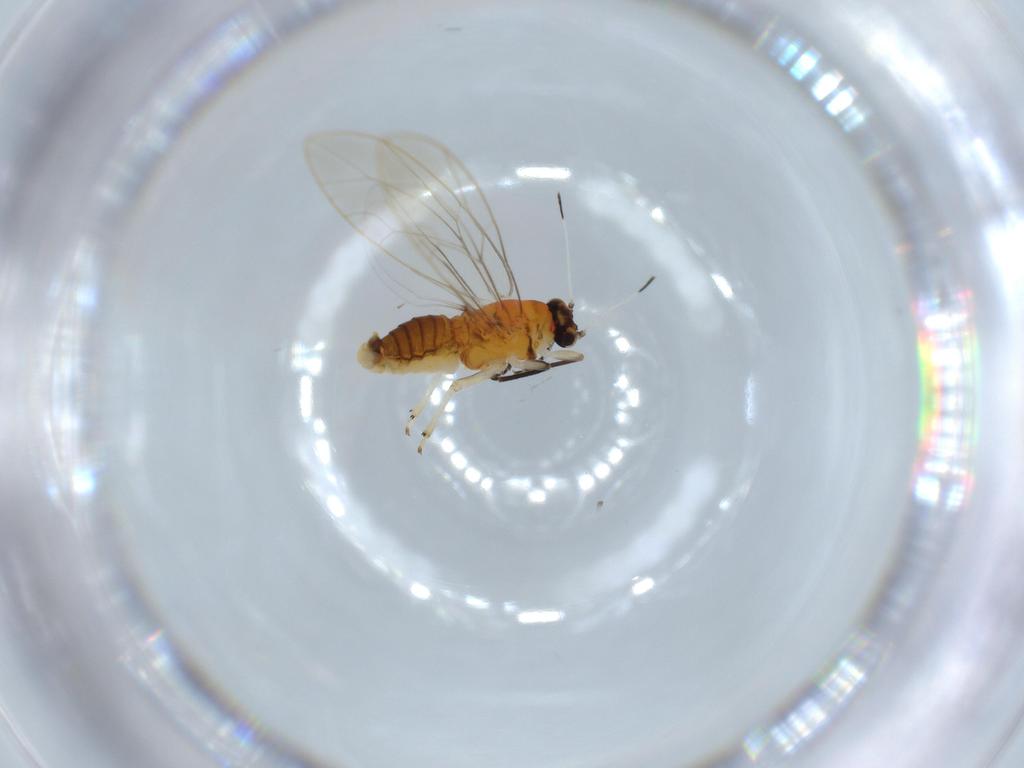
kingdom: Animalia
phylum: Arthropoda
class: Insecta
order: Hemiptera
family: Triozidae
